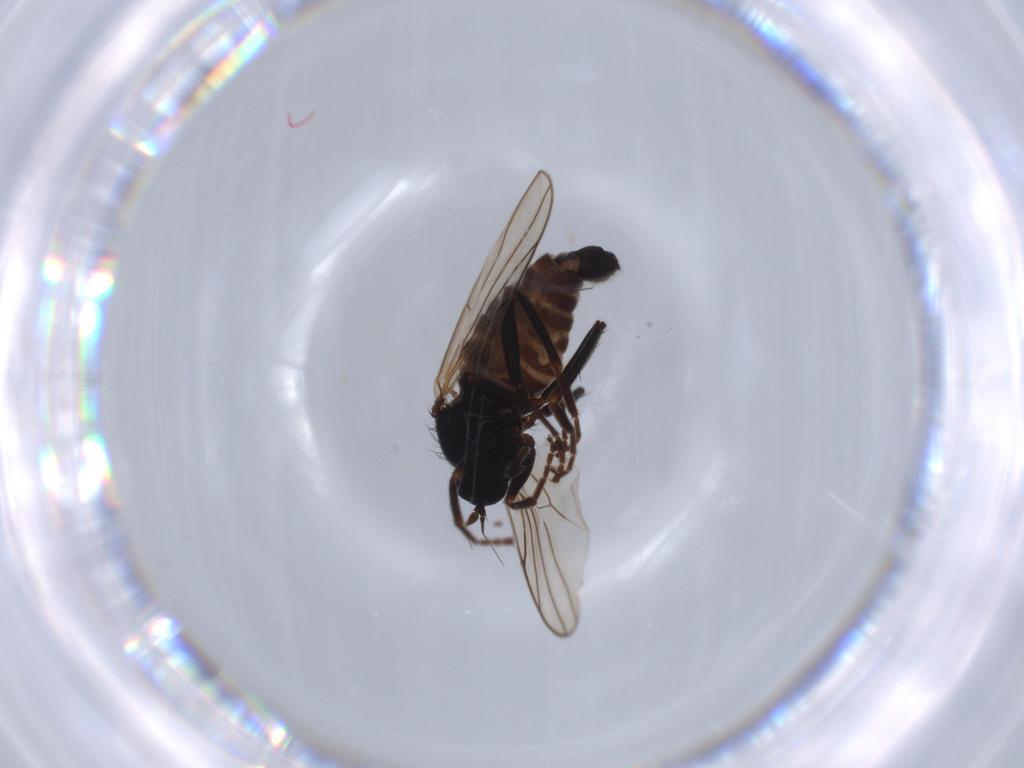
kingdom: Animalia
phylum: Arthropoda
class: Insecta
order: Diptera
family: Hybotidae
